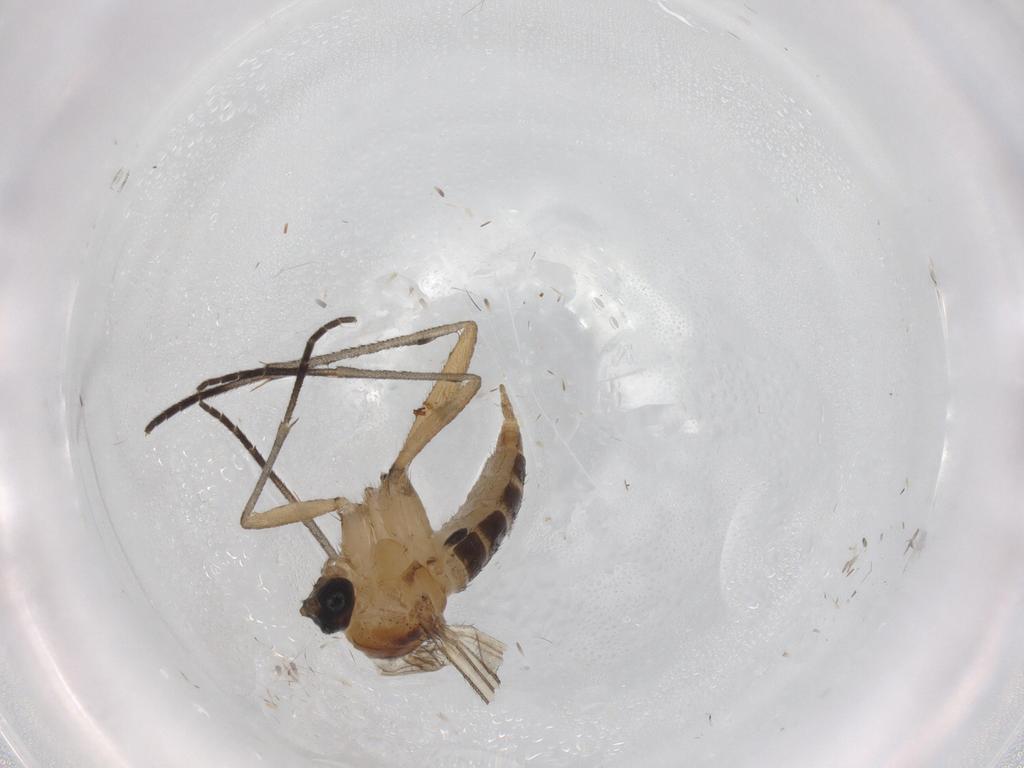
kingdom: Animalia
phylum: Arthropoda
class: Insecta
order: Diptera
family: Sciaridae
